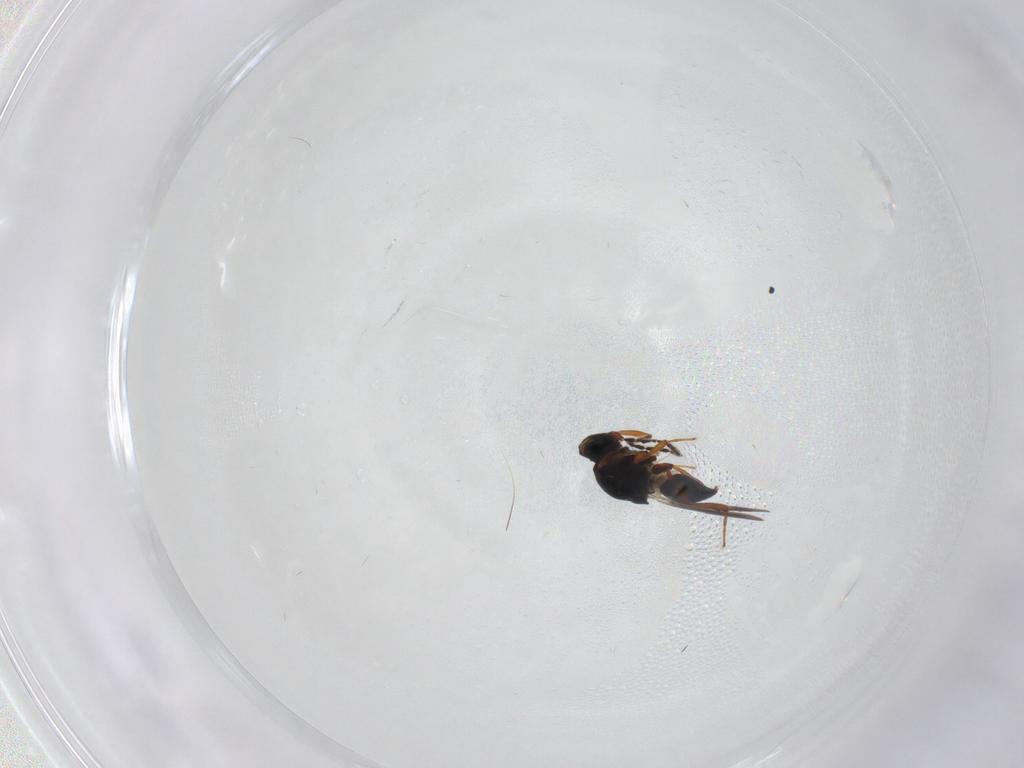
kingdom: Animalia
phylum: Arthropoda
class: Insecta
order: Hymenoptera
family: Platygastridae
